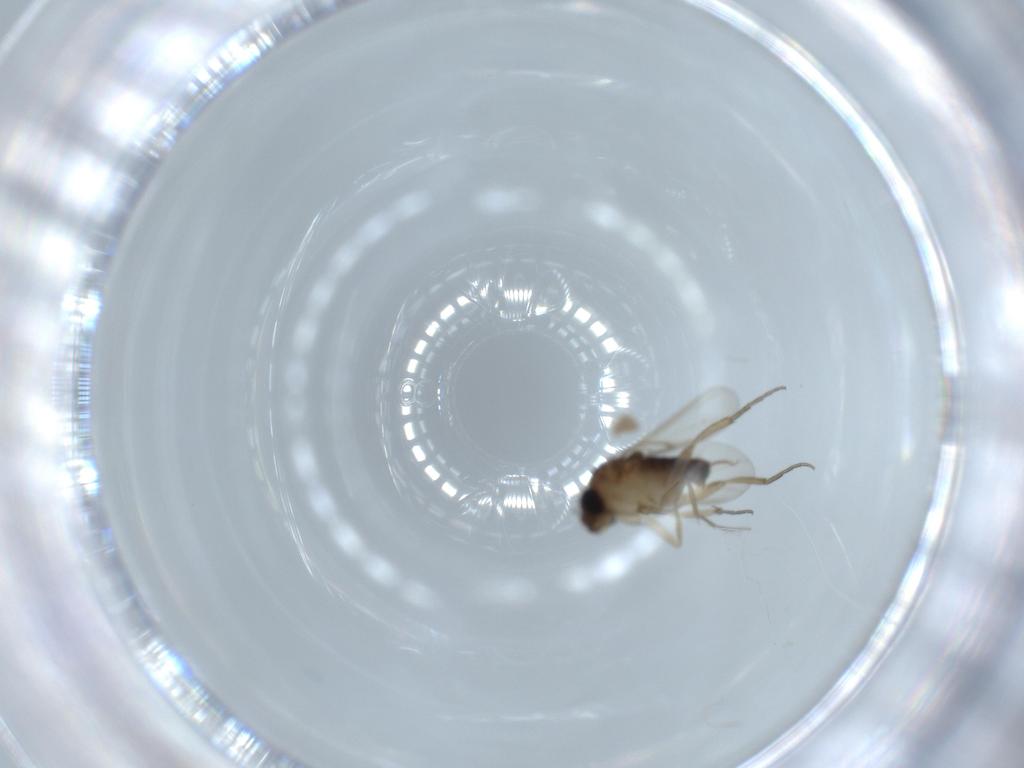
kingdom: Animalia
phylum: Arthropoda
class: Insecta
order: Diptera
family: Phoridae
